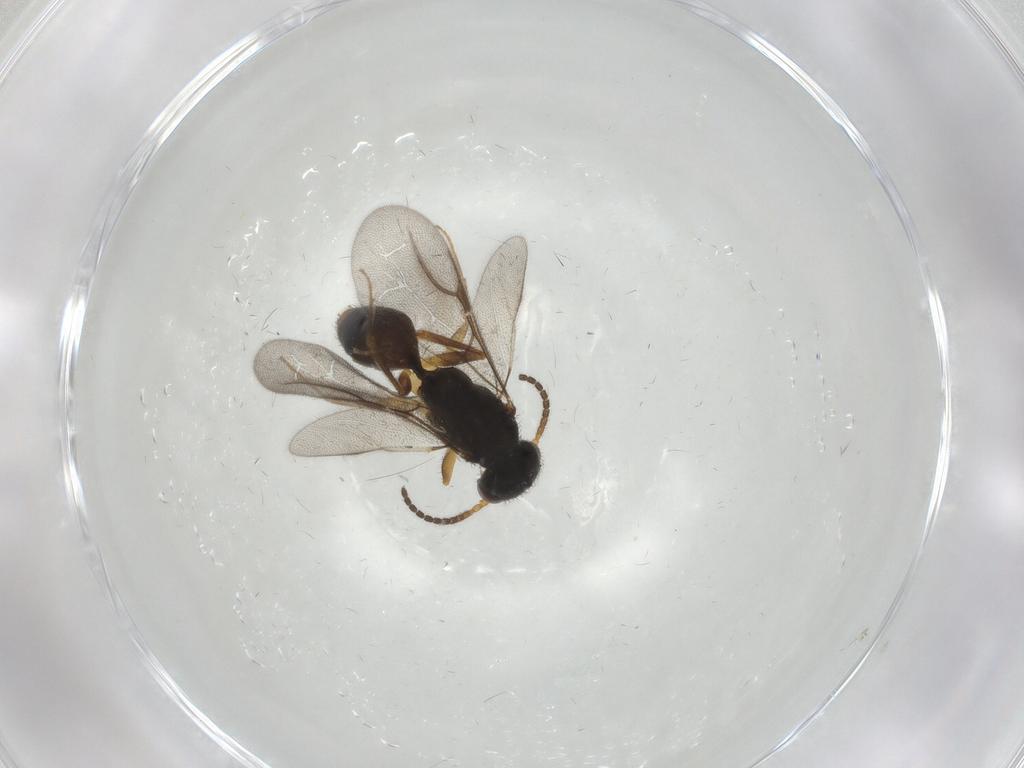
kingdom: Animalia
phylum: Arthropoda
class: Insecta
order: Hymenoptera
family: Bethylidae
